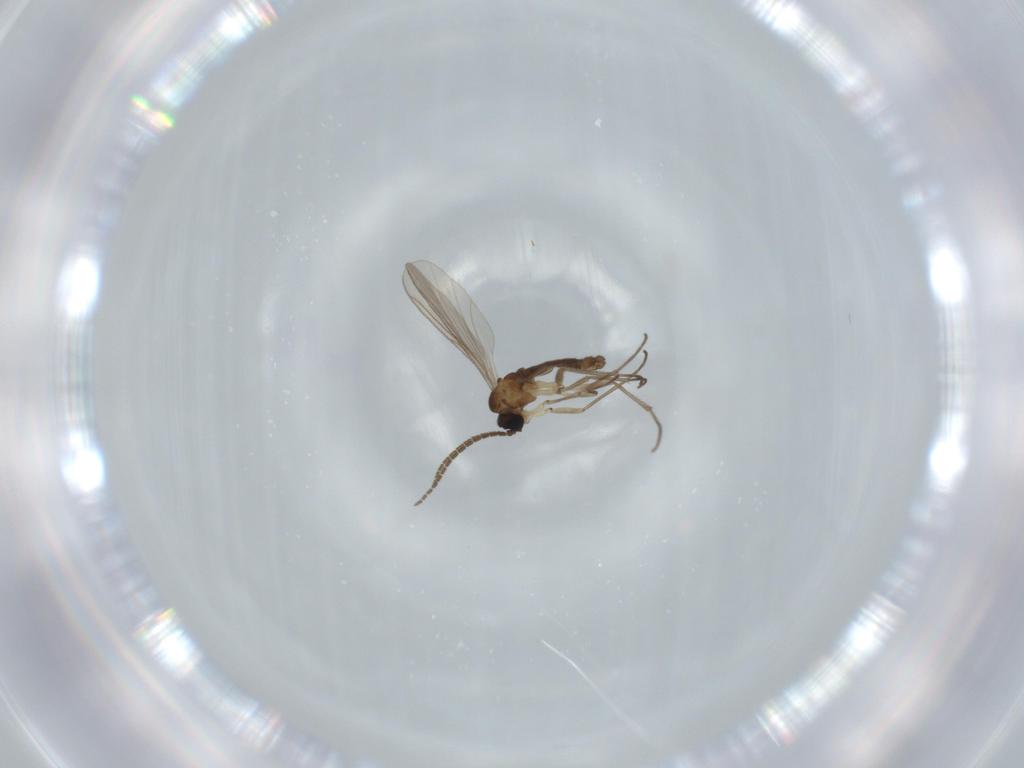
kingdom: Animalia
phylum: Arthropoda
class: Insecta
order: Diptera
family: Sciaridae
